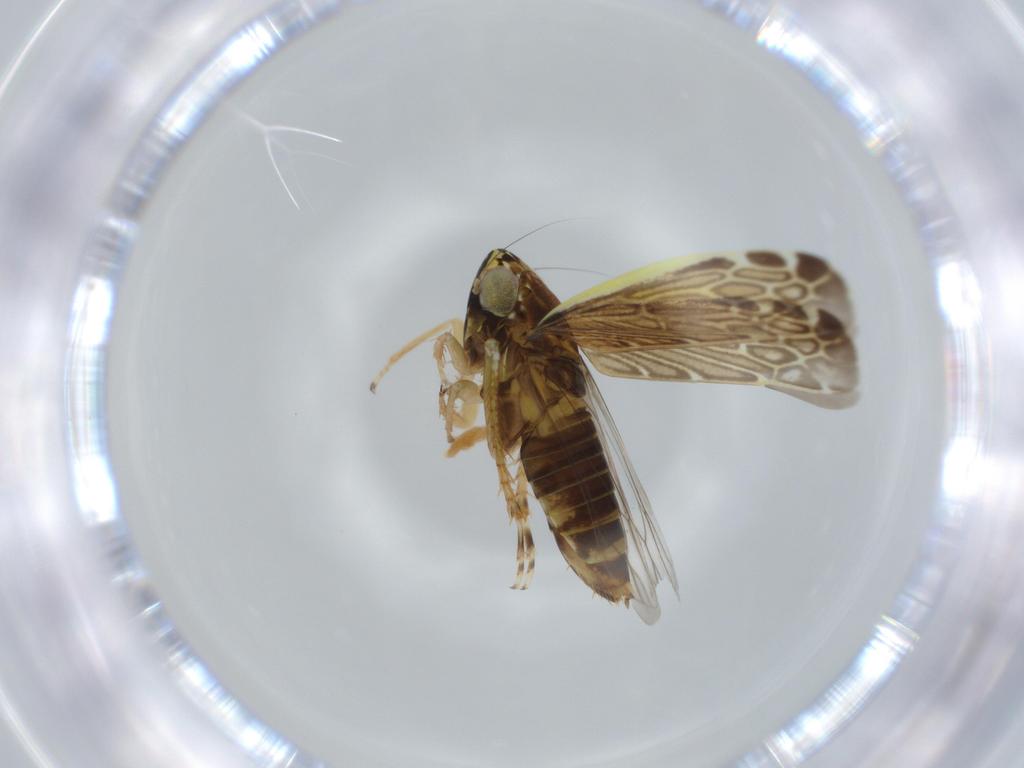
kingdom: Animalia
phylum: Arthropoda
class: Insecta
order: Hemiptera
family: Cicadellidae
